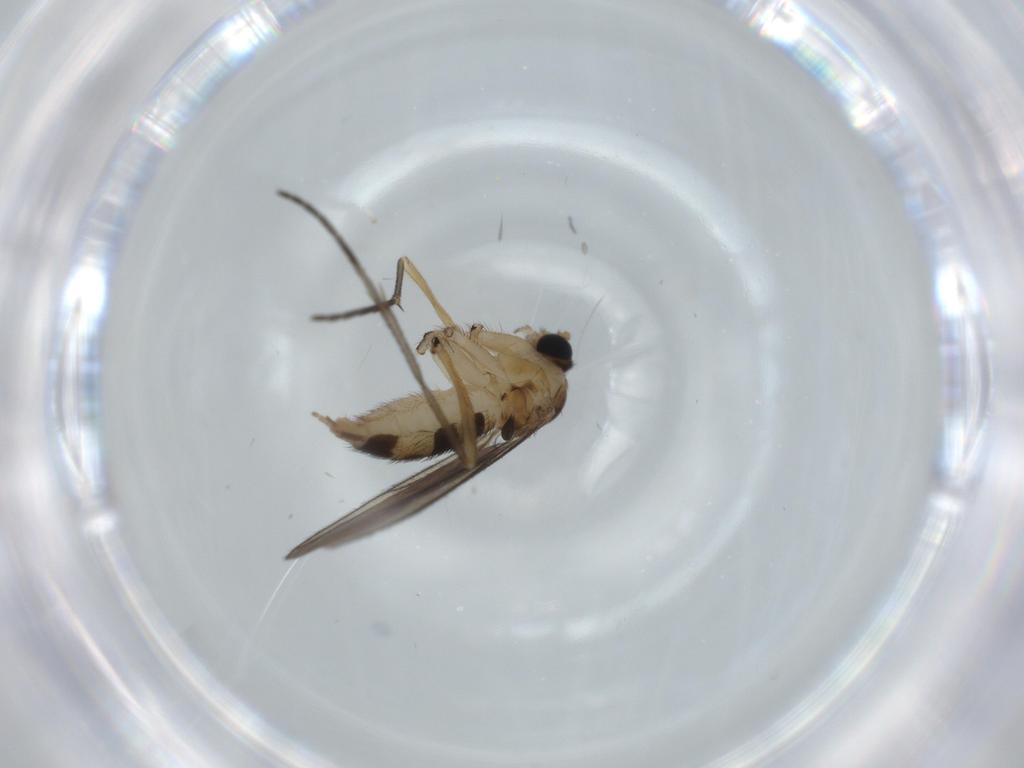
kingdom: Animalia
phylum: Arthropoda
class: Insecta
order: Diptera
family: Sciaridae
